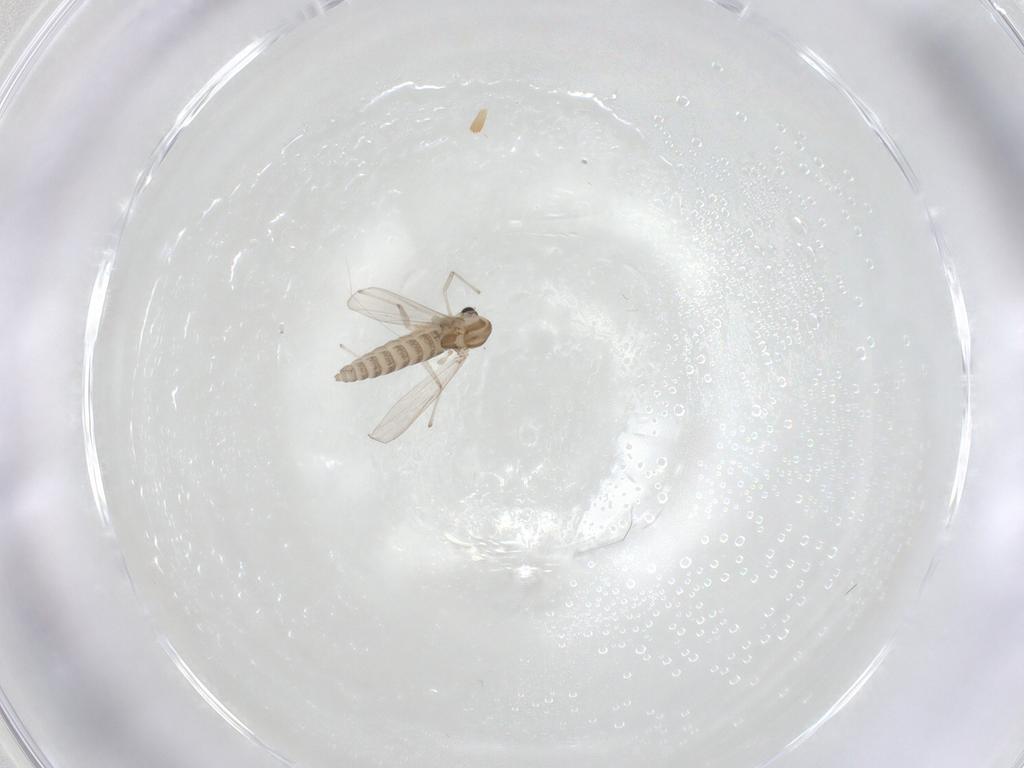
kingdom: Animalia
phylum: Arthropoda
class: Insecta
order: Diptera
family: Chironomidae
